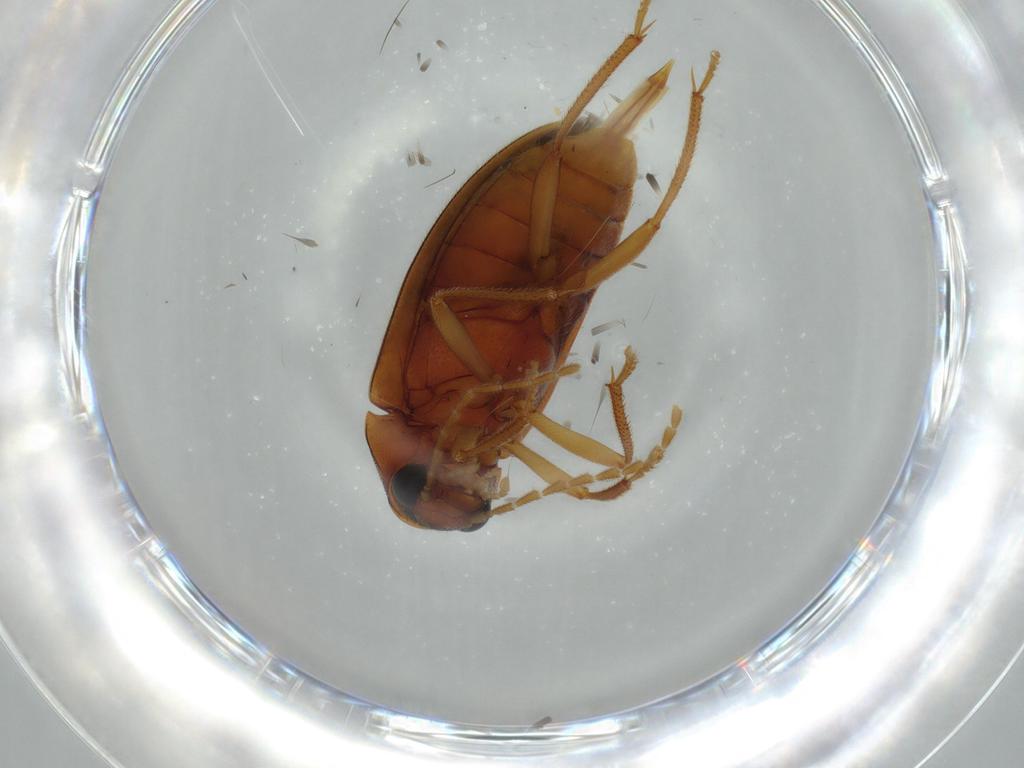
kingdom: Animalia
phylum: Arthropoda
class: Insecta
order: Coleoptera
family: Ptilodactylidae
